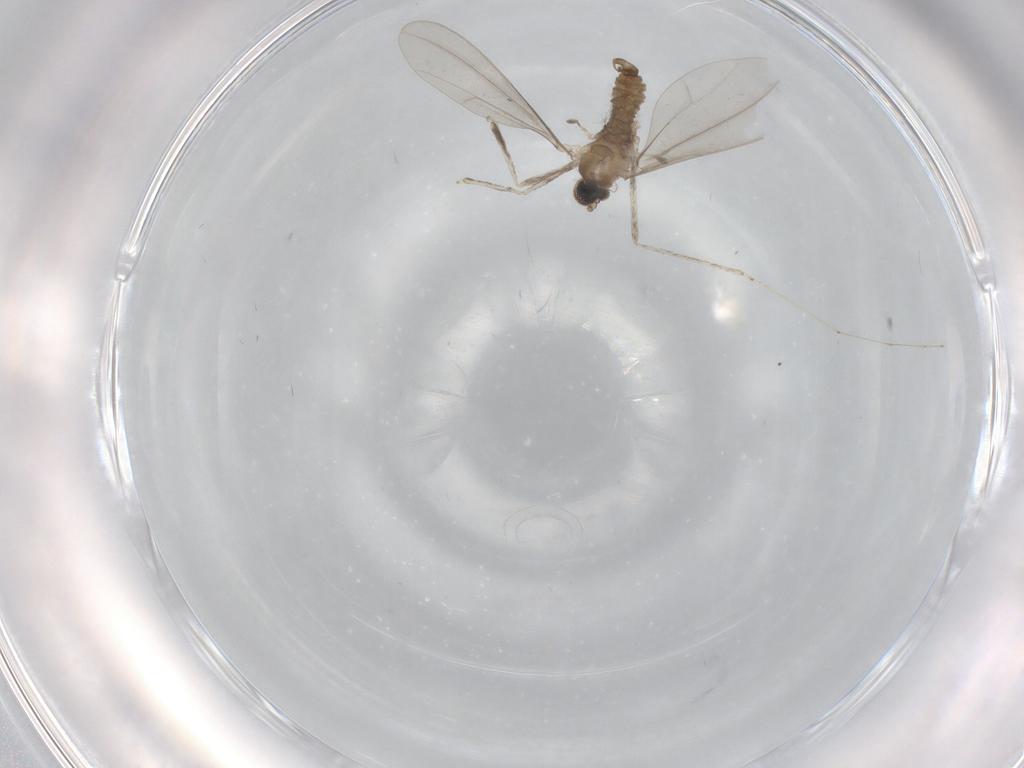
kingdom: Animalia
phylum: Arthropoda
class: Insecta
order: Diptera
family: Cecidomyiidae
